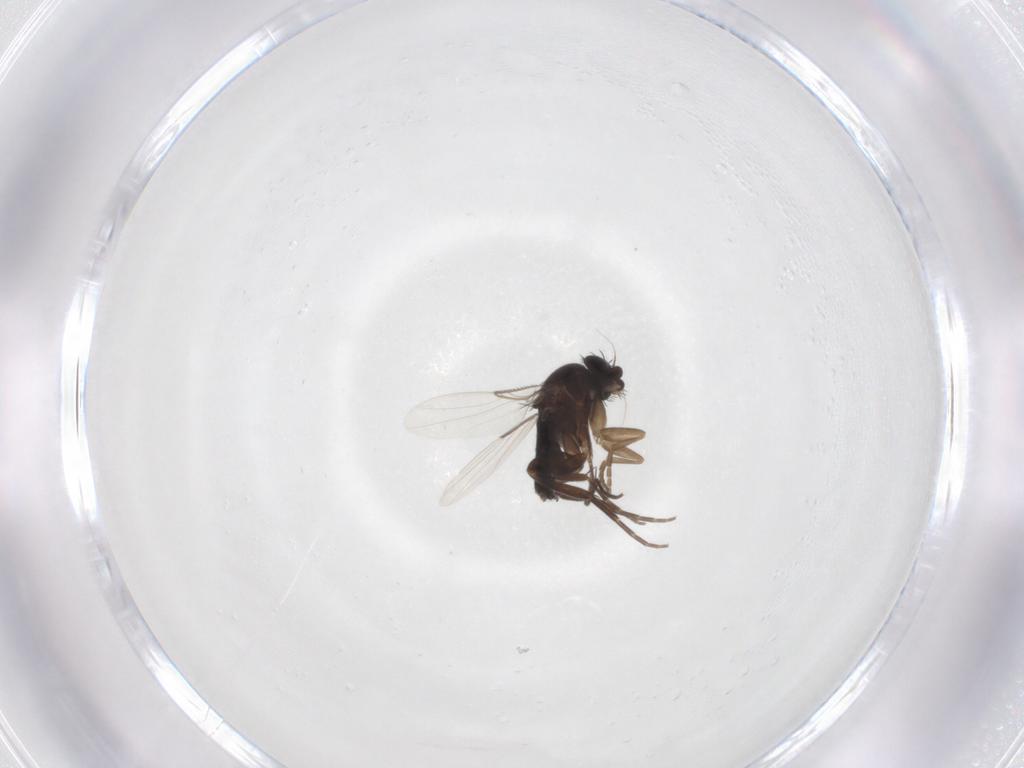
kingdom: Animalia
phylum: Arthropoda
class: Insecta
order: Diptera
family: Phoridae
